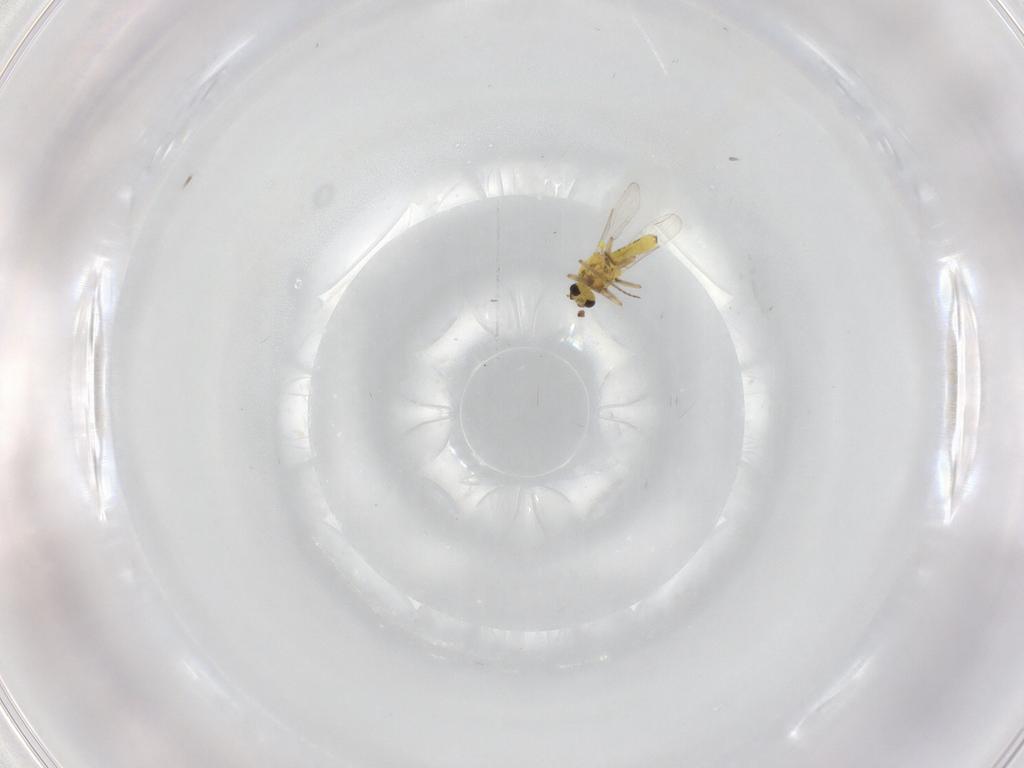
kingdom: Animalia
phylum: Arthropoda
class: Insecta
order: Diptera
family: Ceratopogonidae
